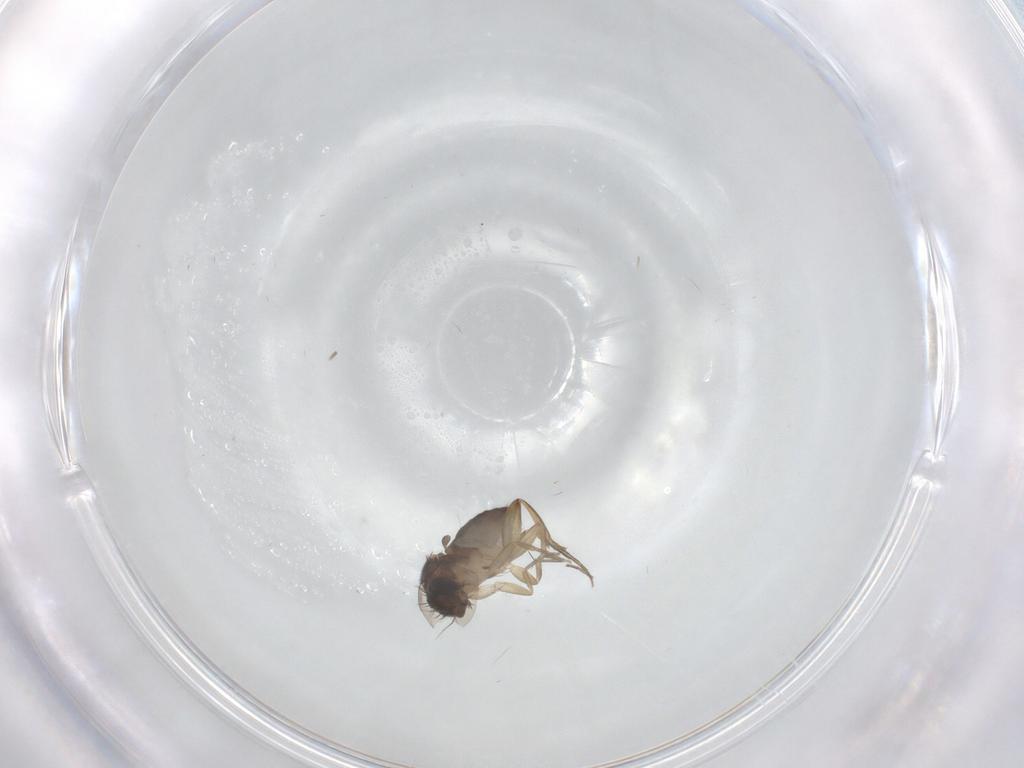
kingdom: Animalia
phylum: Arthropoda
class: Insecta
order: Diptera
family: Phoridae
